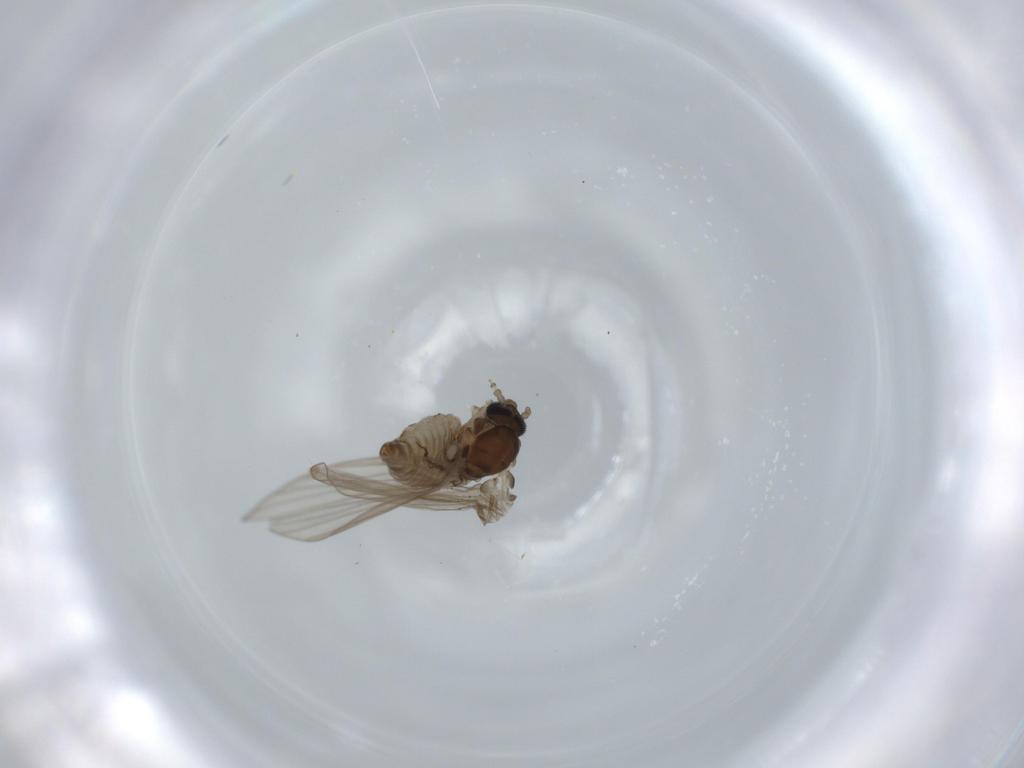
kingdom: Animalia
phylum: Arthropoda
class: Insecta
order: Diptera
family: Psychodidae
